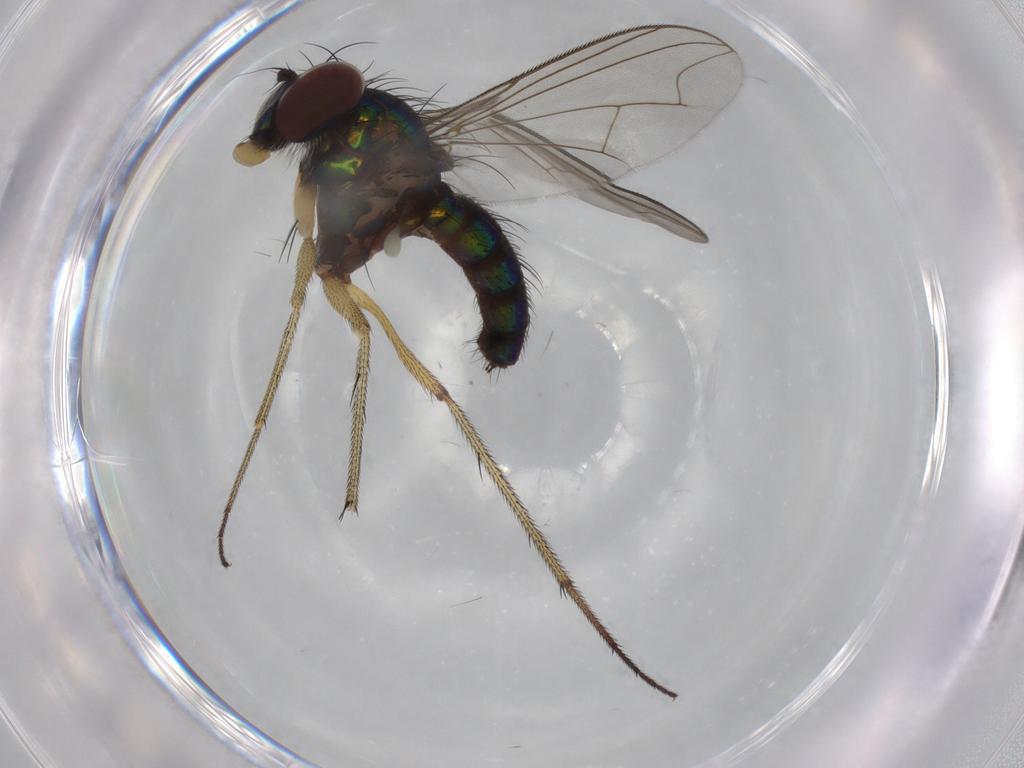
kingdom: Animalia
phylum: Arthropoda
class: Insecta
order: Diptera
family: Dolichopodidae
